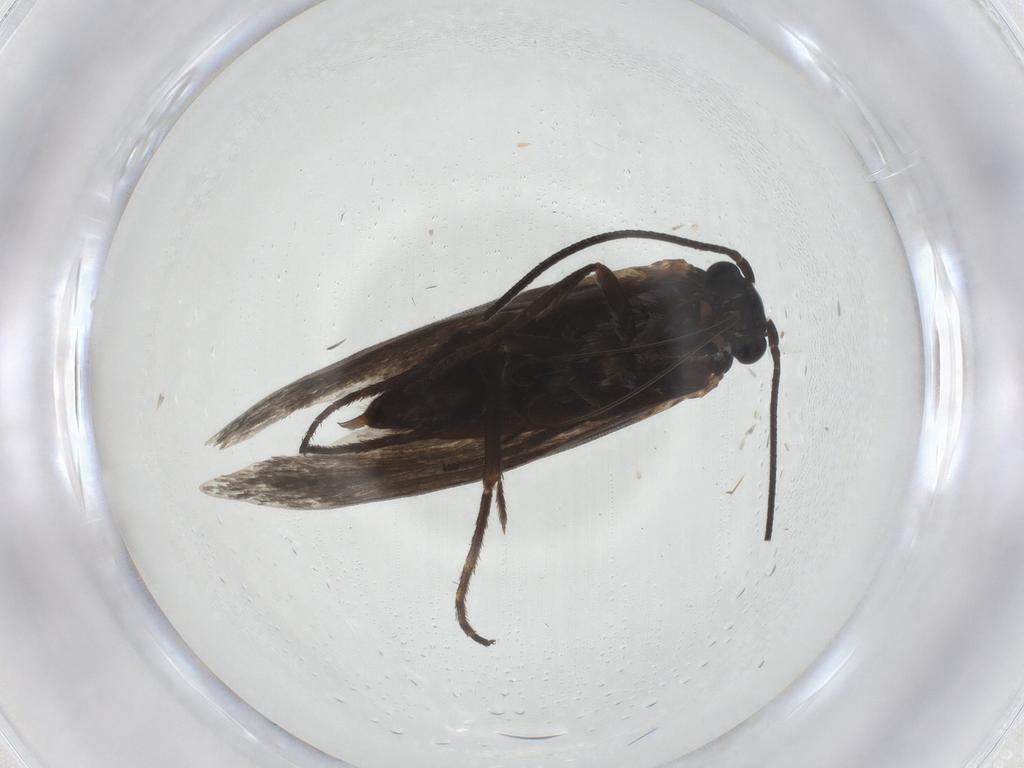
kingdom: Animalia
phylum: Arthropoda
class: Insecta
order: Lepidoptera
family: Adelidae
